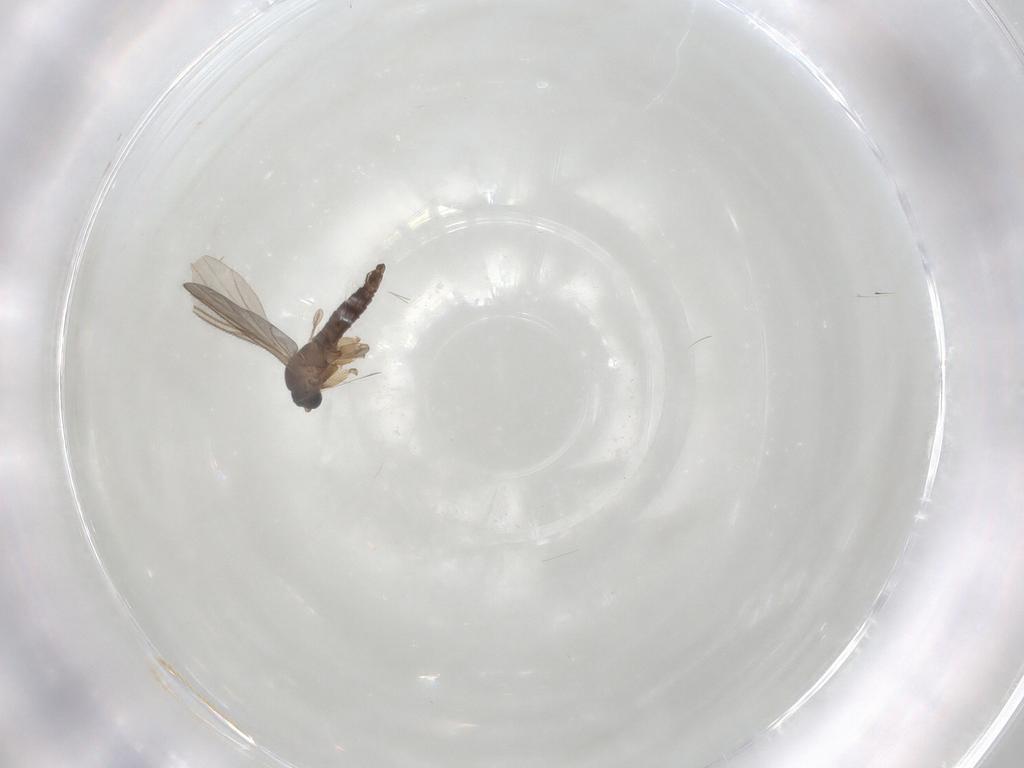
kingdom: Animalia
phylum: Arthropoda
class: Insecta
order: Diptera
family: Sciaridae
